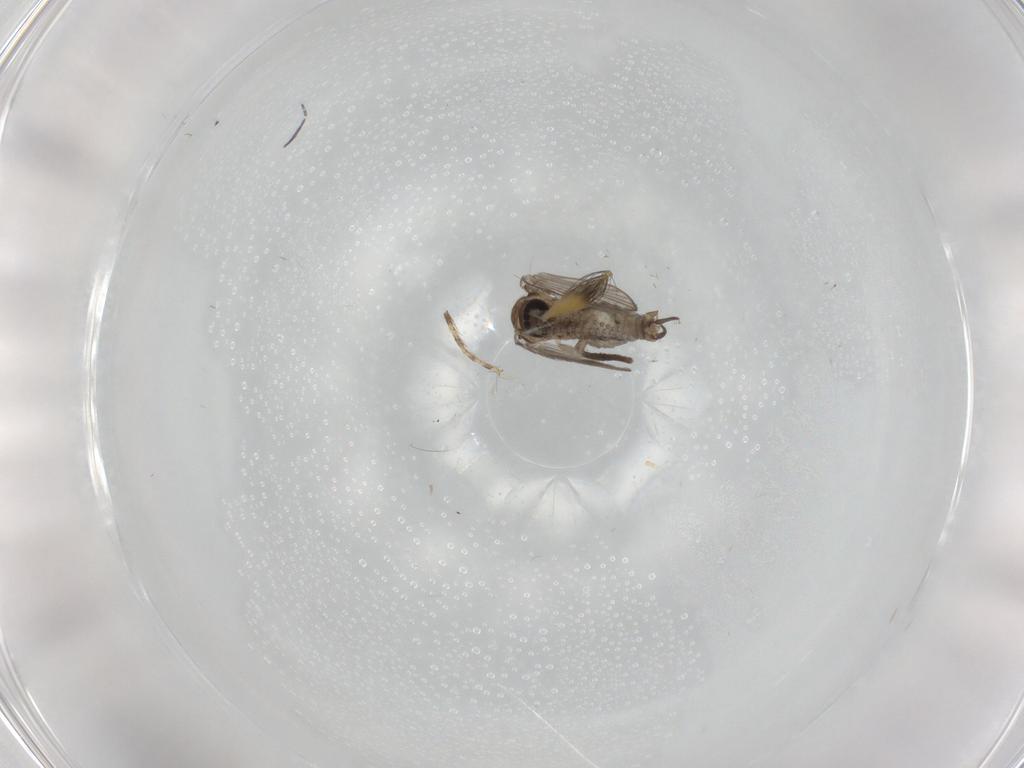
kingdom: Animalia
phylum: Arthropoda
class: Insecta
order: Diptera
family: Psychodidae
